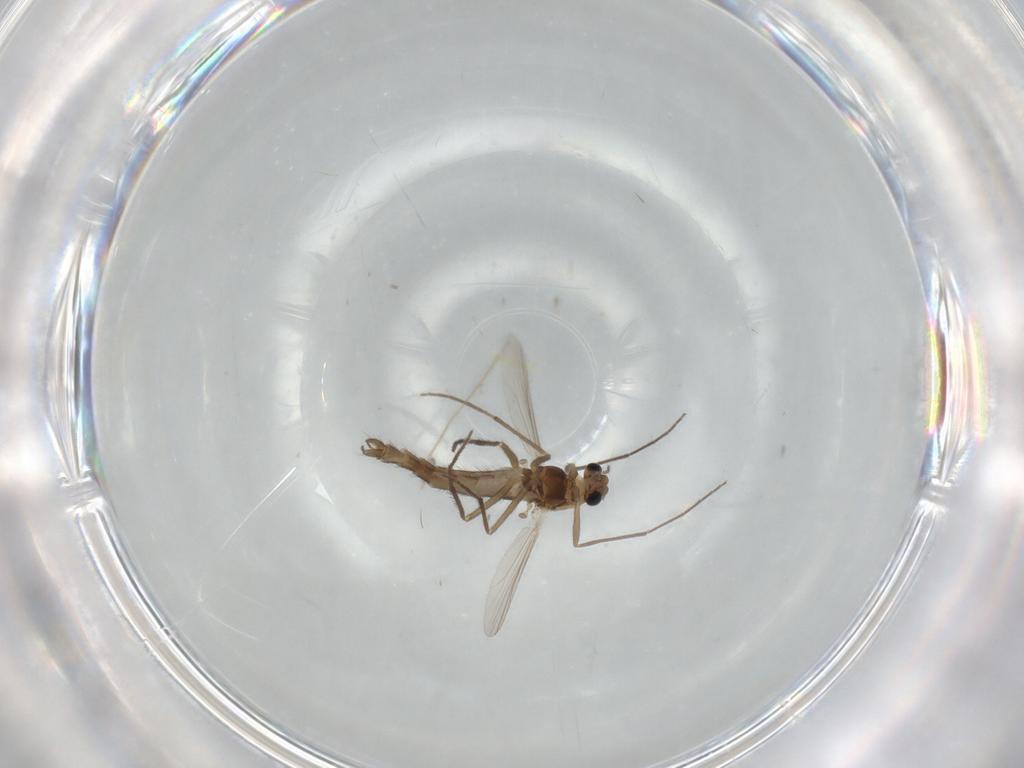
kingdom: Animalia
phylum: Arthropoda
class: Insecta
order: Diptera
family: Chironomidae
